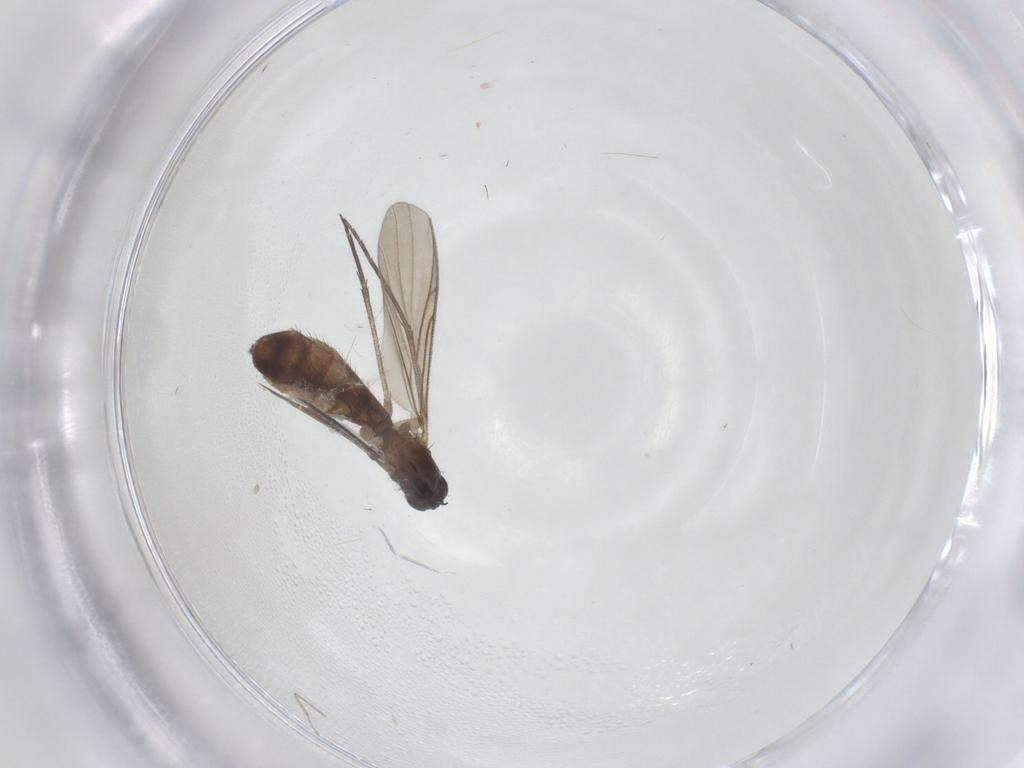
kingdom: Animalia
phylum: Arthropoda
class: Insecta
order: Diptera
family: Keroplatidae
